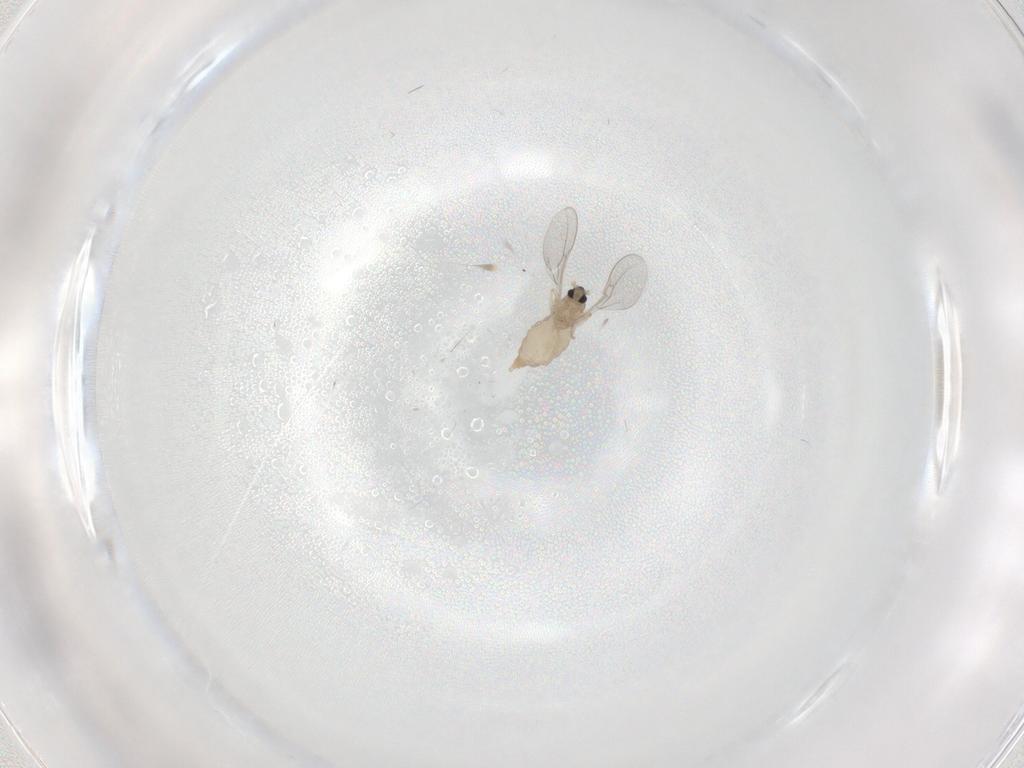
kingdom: Animalia
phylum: Arthropoda
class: Insecta
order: Diptera
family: Cecidomyiidae
